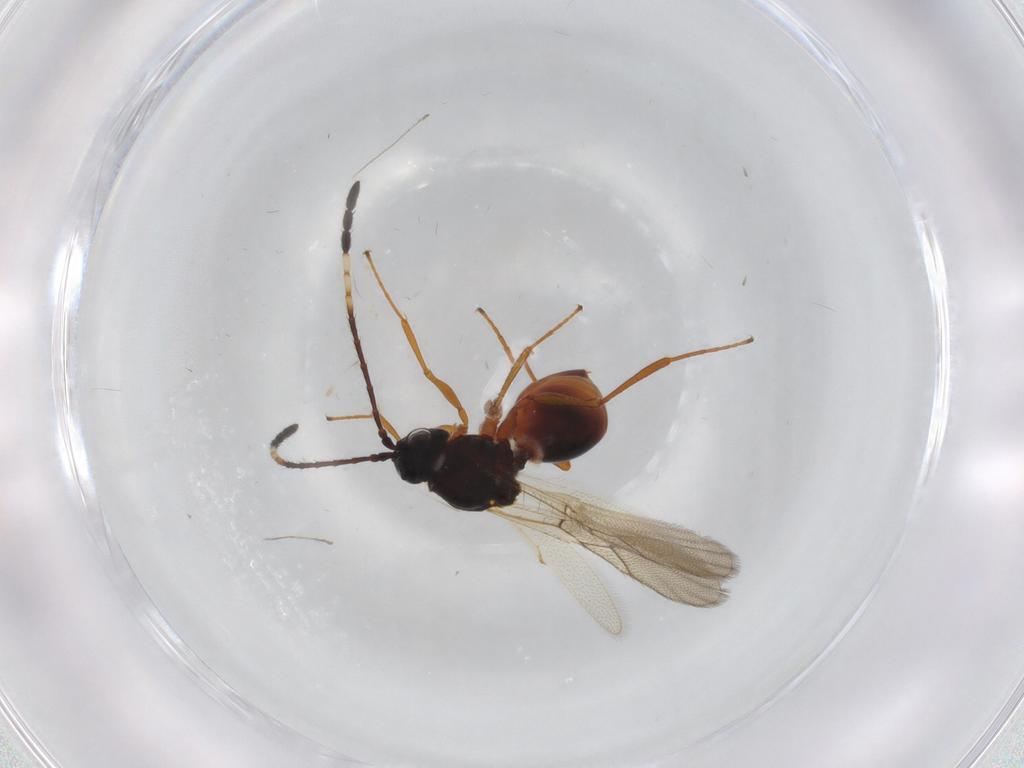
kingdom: Animalia
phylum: Arthropoda
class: Insecta
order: Hymenoptera
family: Figitidae
